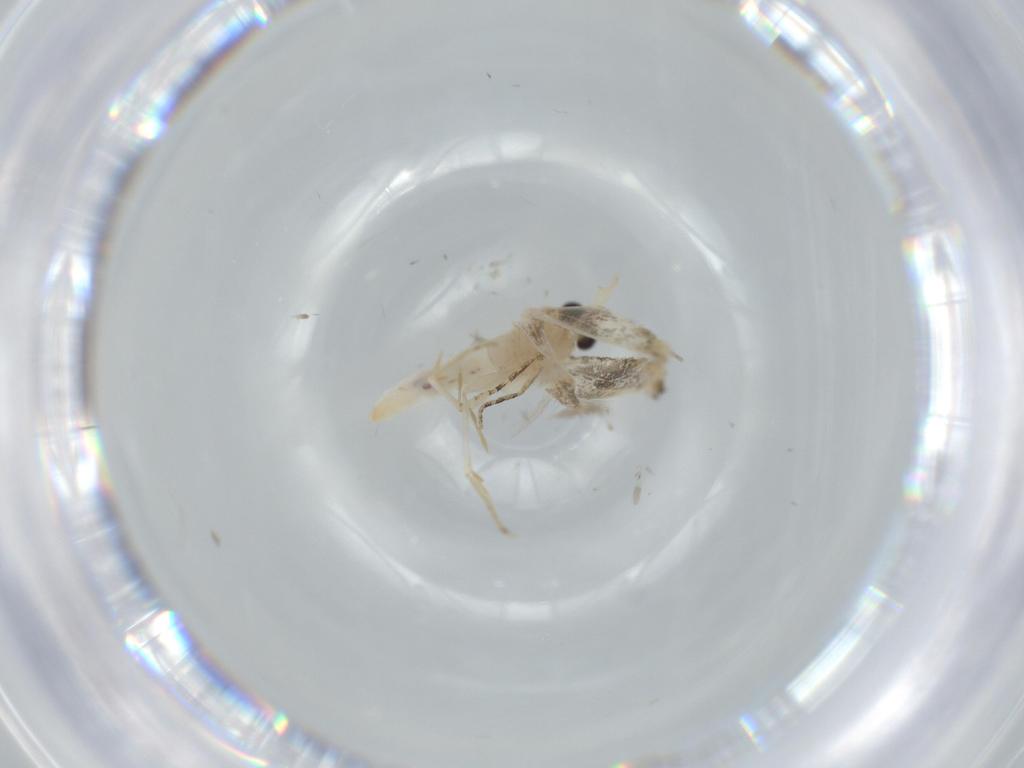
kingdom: Animalia
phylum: Arthropoda
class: Insecta
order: Lepidoptera
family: Bucculatricidae
